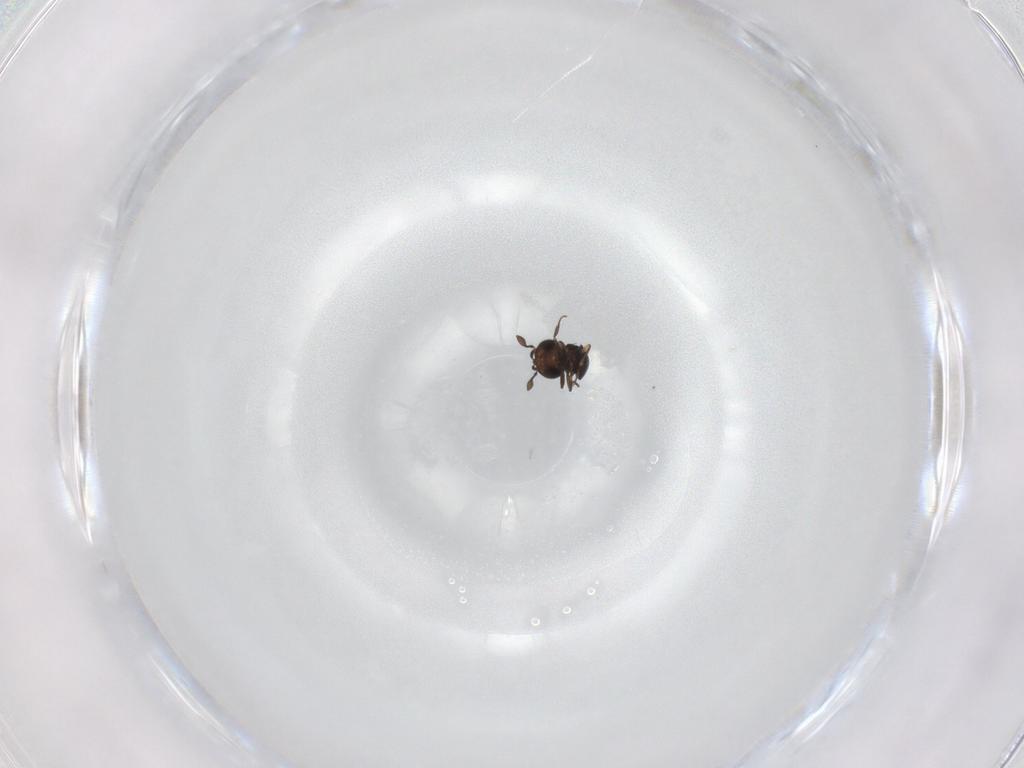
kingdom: Animalia
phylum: Arthropoda
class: Insecta
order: Hymenoptera
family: Scelionidae
